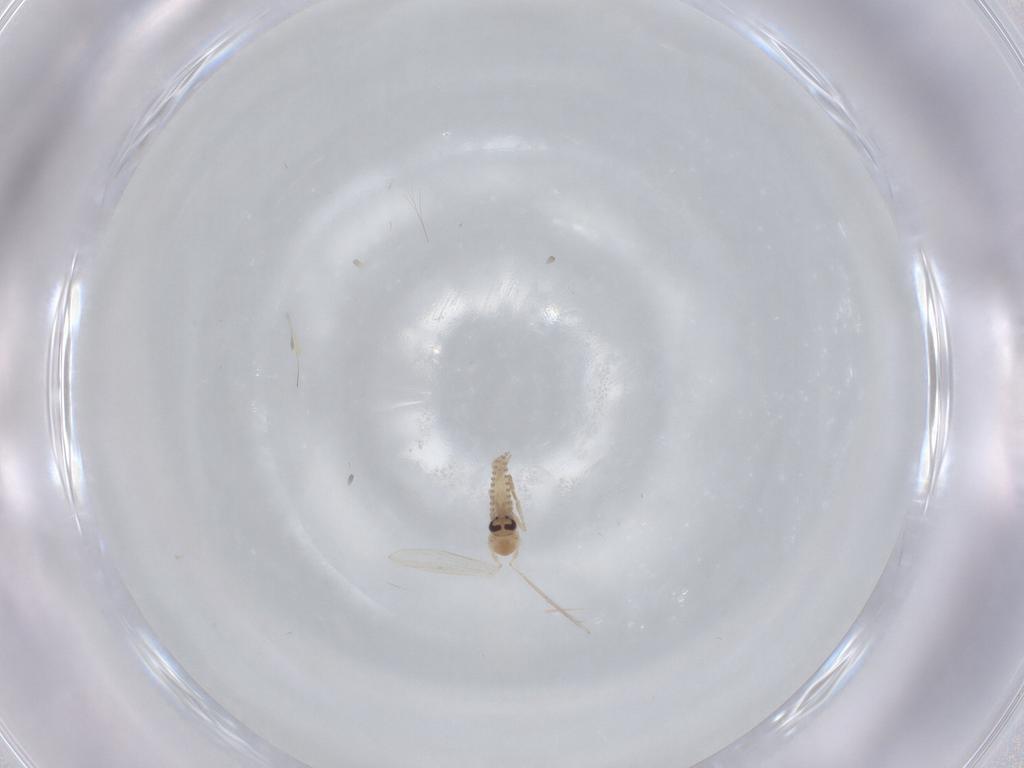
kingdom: Animalia
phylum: Arthropoda
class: Insecta
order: Diptera
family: Psychodidae
